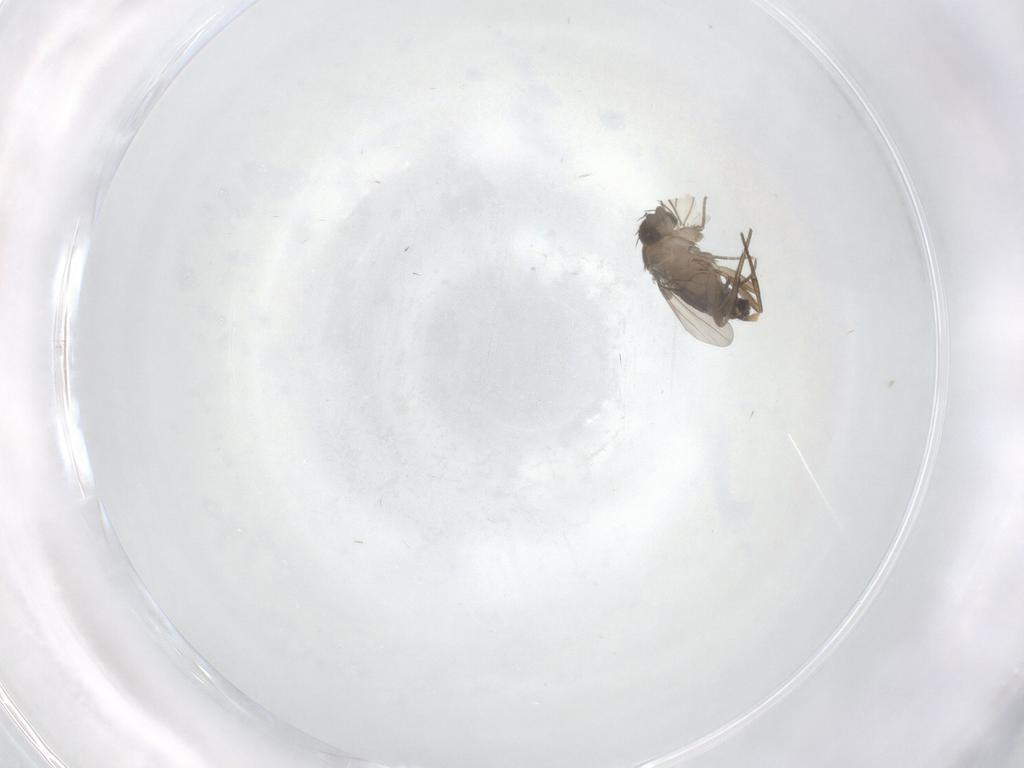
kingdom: Animalia
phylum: Arthropoda
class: Insecta
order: Diptera
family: Phoridae
